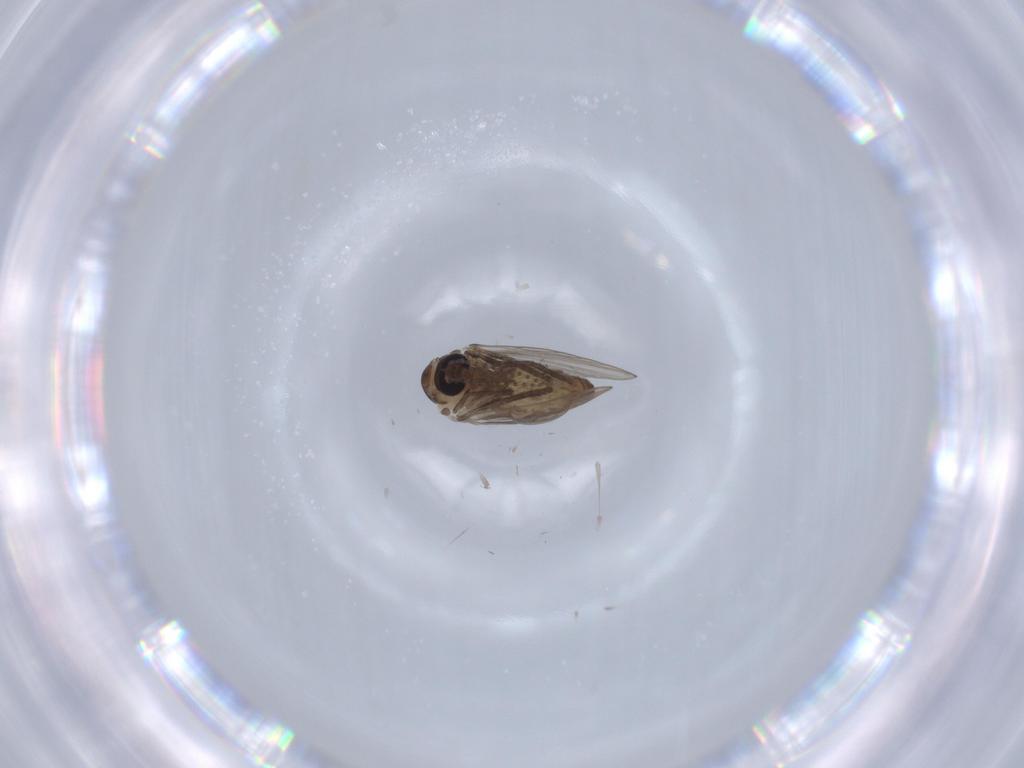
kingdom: Animalia
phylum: Arthropoda
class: Insecta
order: Diptera
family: Psychodidae
